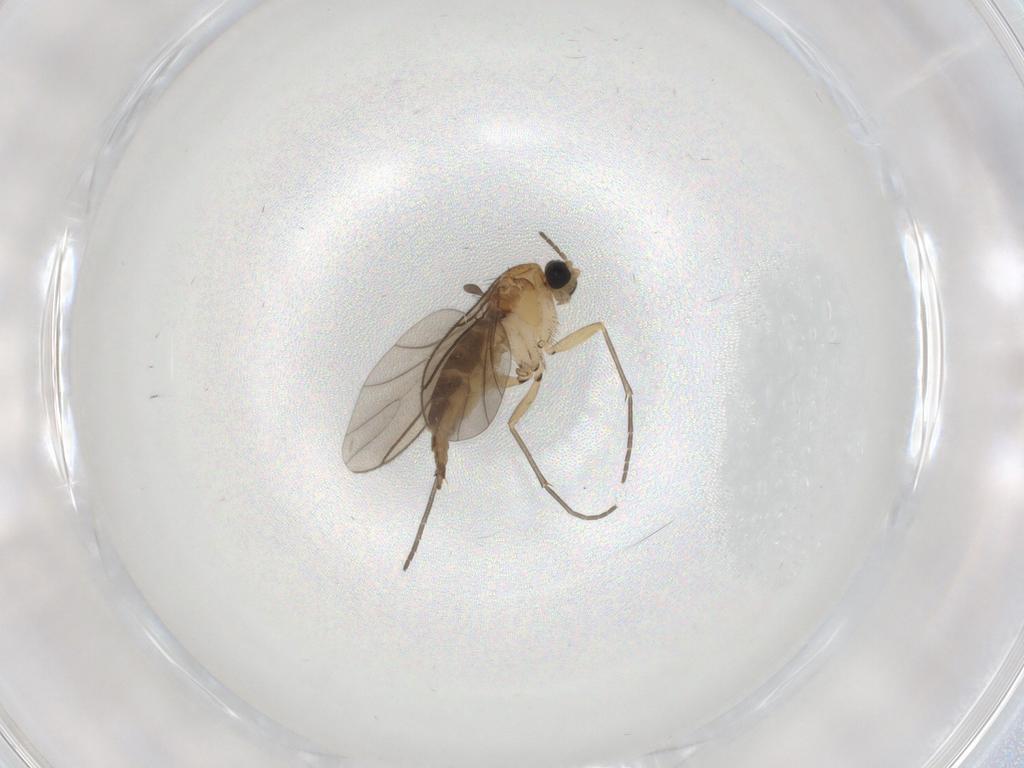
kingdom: Animalia
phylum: Arthropoda
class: Insecta
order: Diptera
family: Sciaridae
